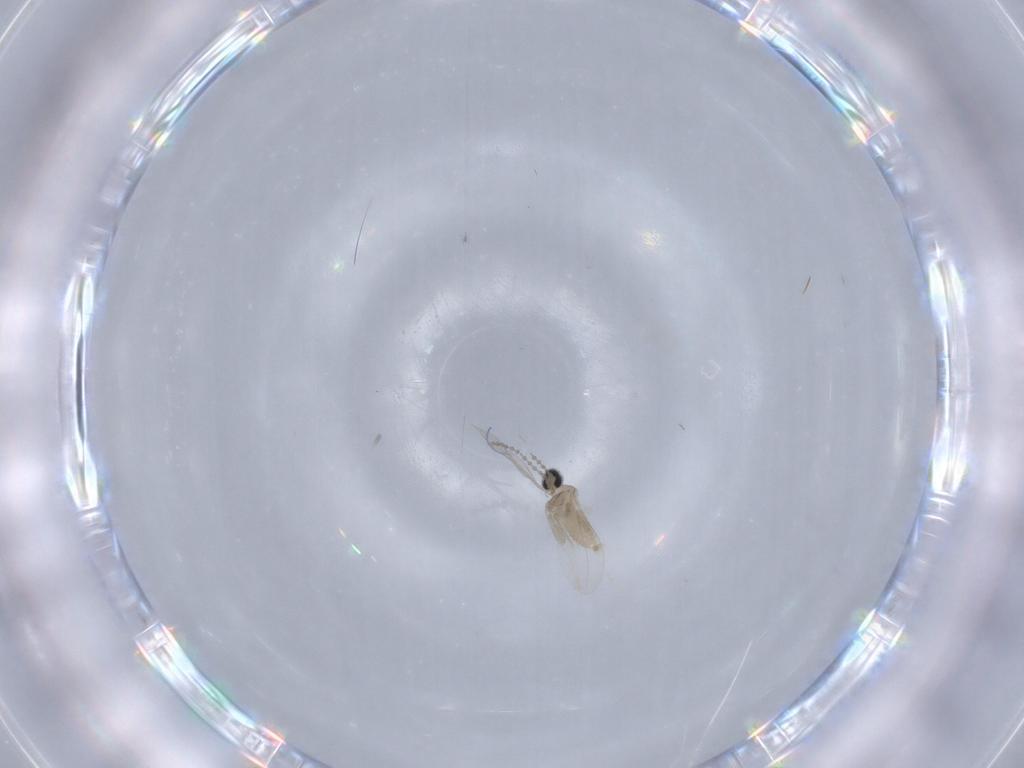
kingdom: Animalia
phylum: Arthropoda
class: Insecta
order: Diptera
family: Cecidomyiidae
